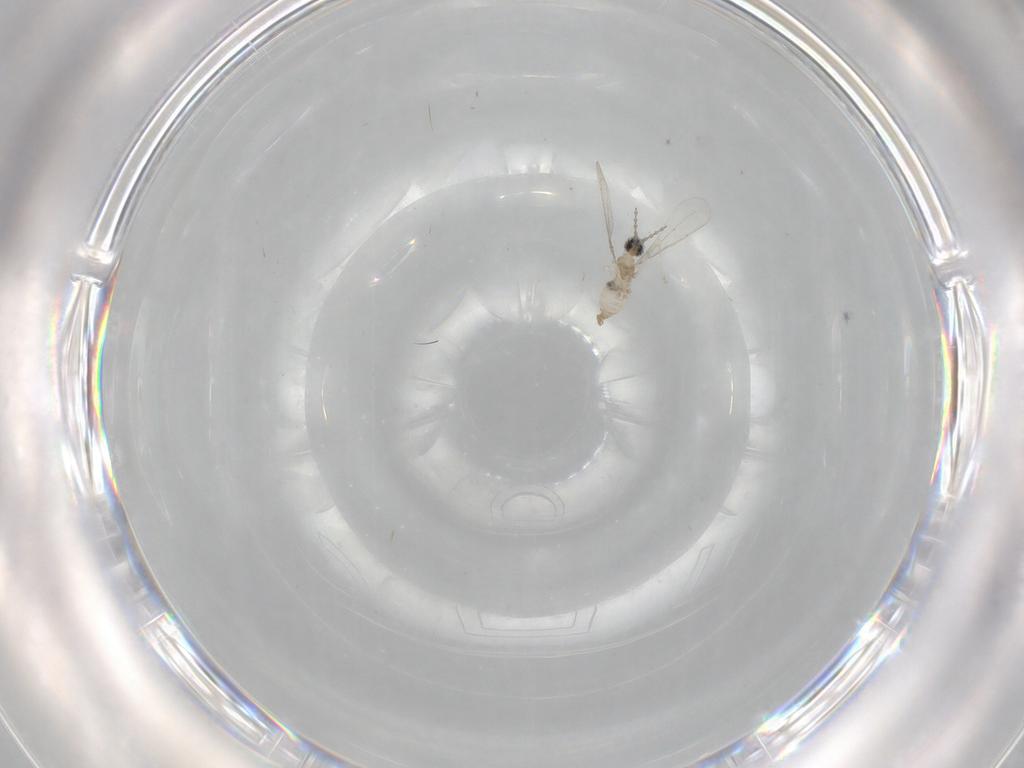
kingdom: Animalia
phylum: Arthropoda
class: Insecta
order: Diptera
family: Cecidomyiidae
